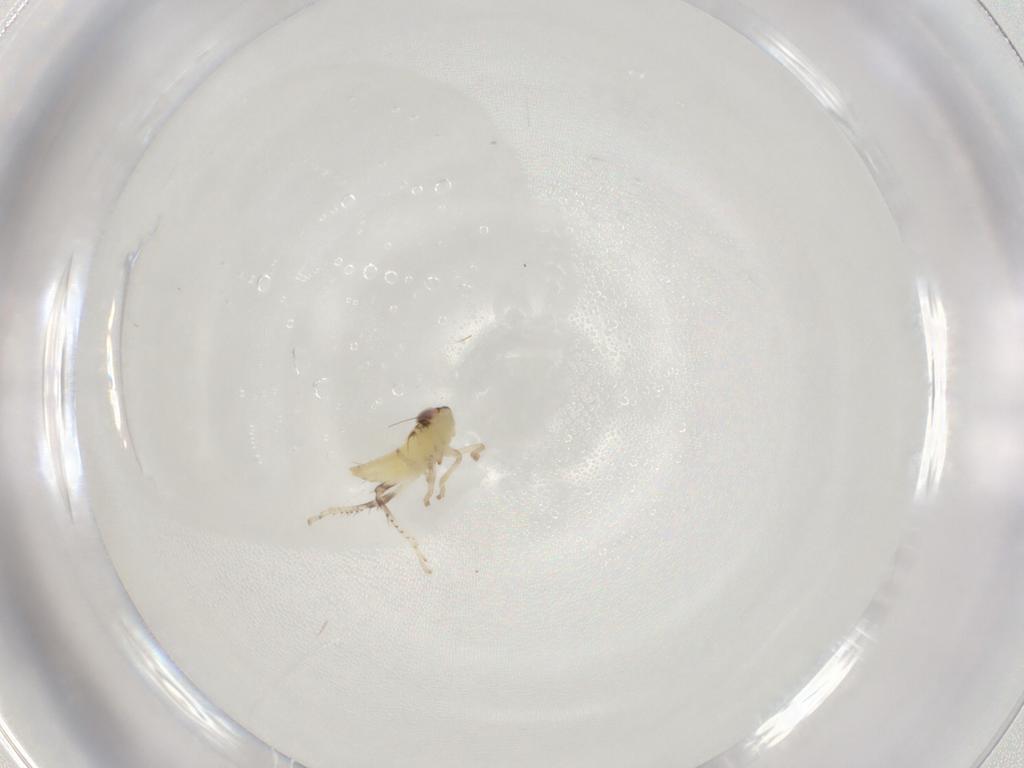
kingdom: Animalia
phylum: Arthropoda
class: Insecta
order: Hemiptera
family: Cicadellidae
